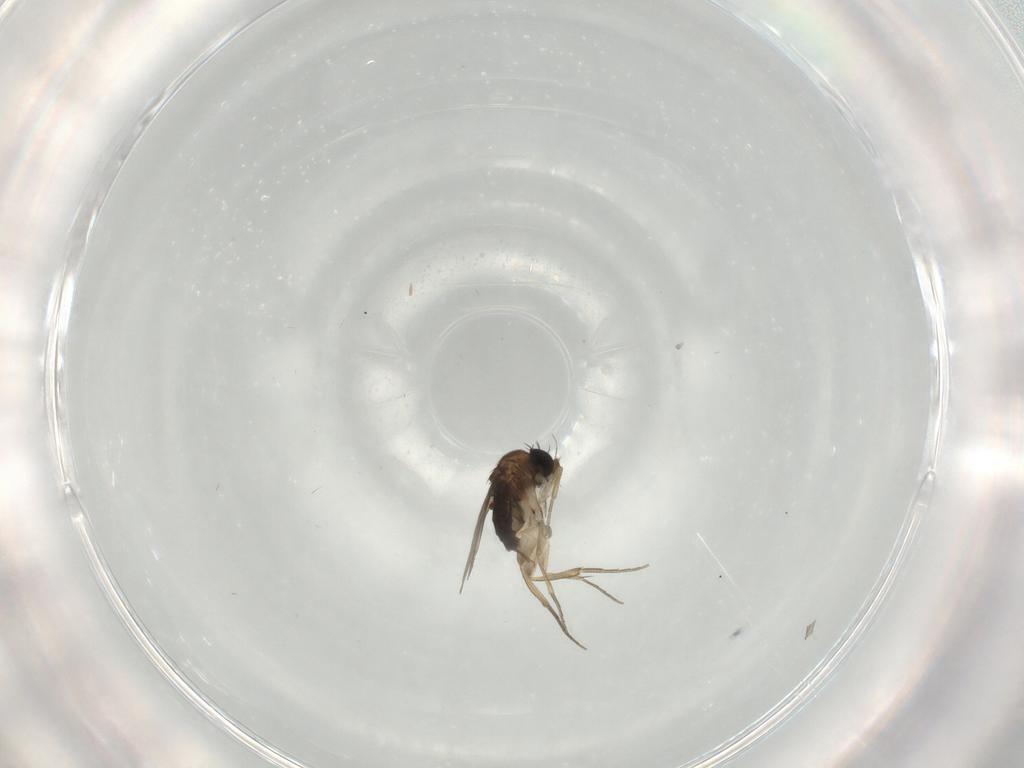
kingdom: Animalia
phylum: Arthropoda
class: Insecta
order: Diptera
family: Phoridae
